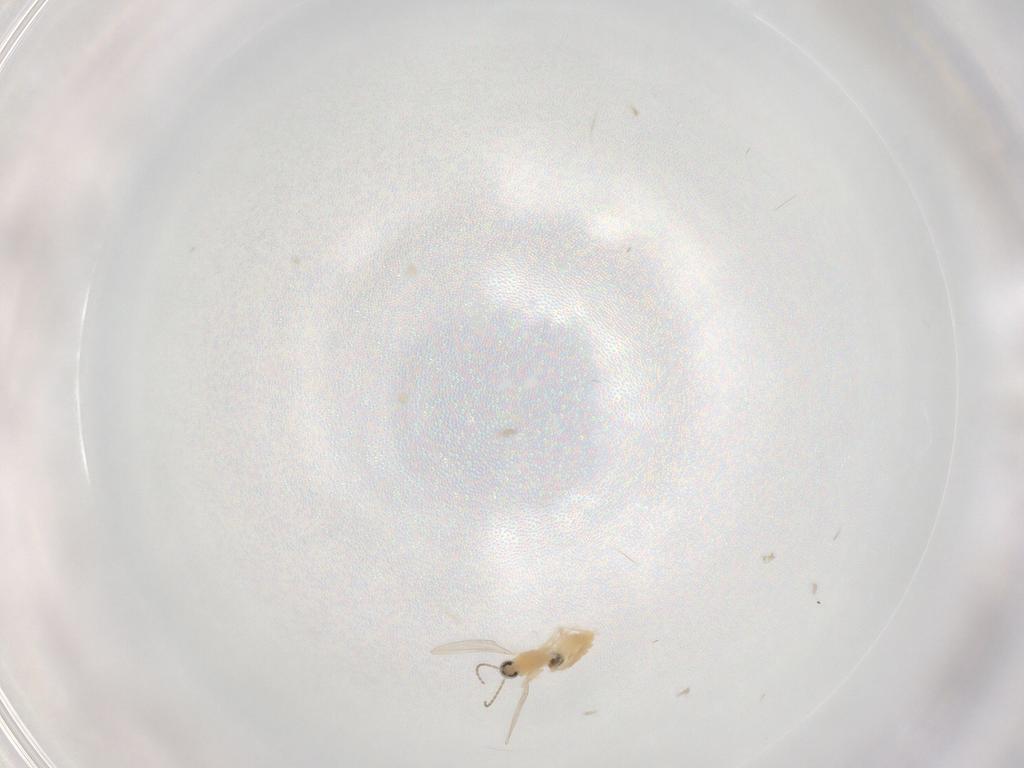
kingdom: Animalia
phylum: Arthropoda
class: Insecta
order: Diptera
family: Cecidomyiidae
